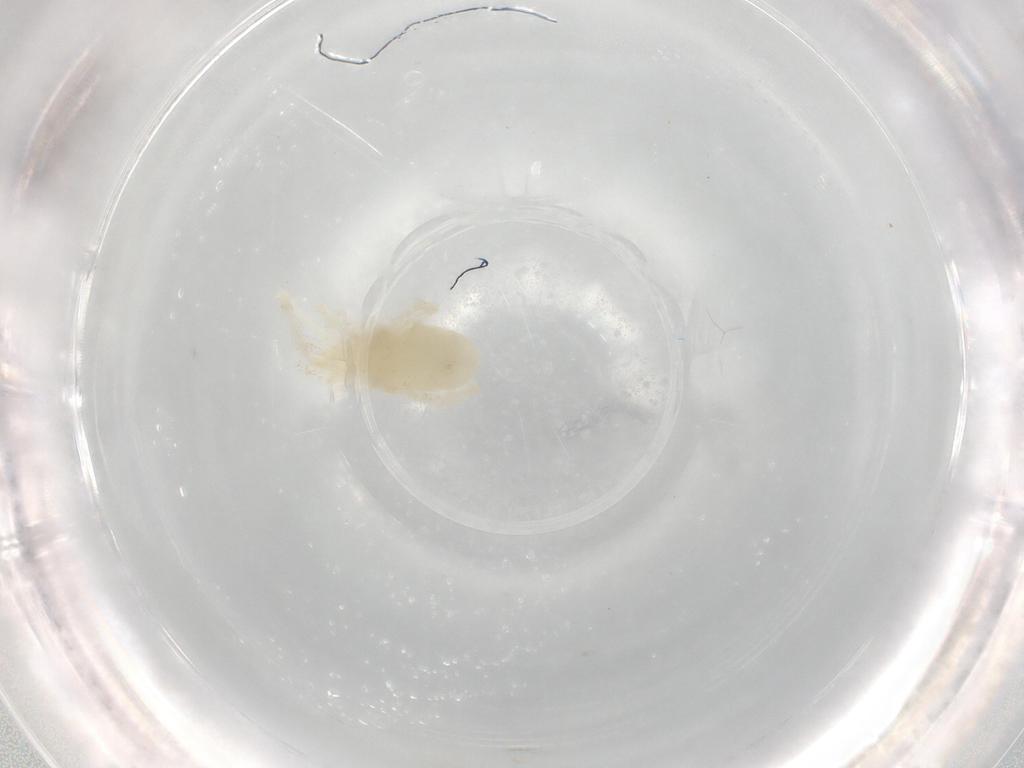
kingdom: Animalia
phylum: Arthropoda
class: Arachnida
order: Trombidiformes
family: Rhagidiidae
